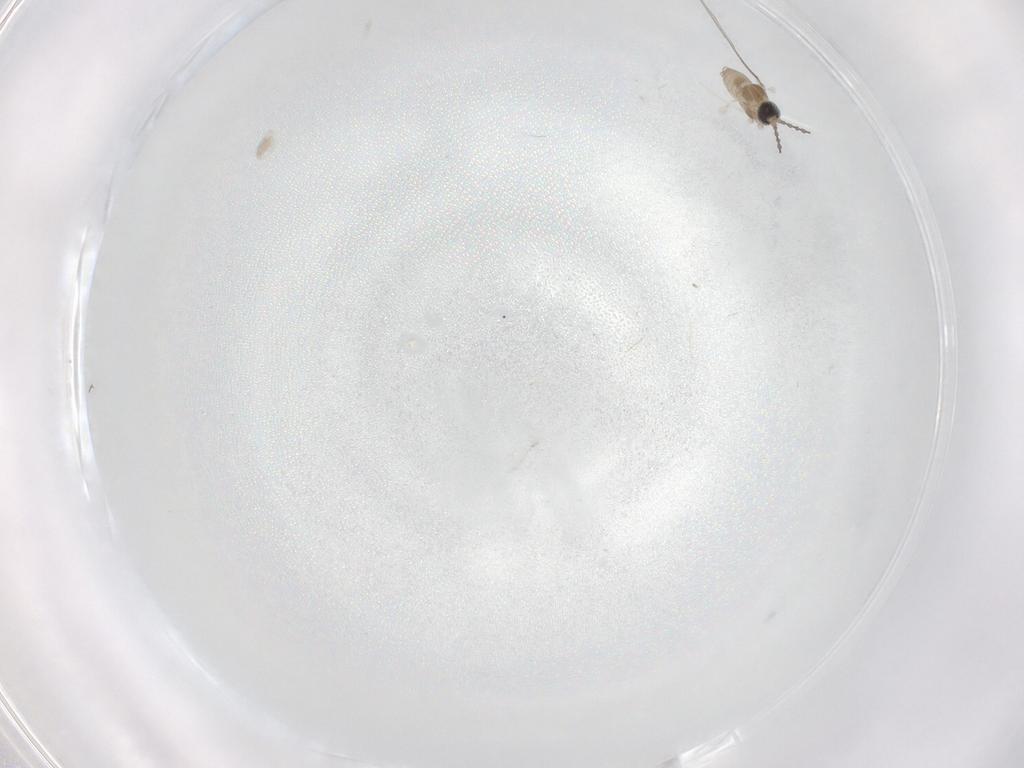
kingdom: Animalia
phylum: Arthropoda
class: Insecta
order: Diptera
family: Cecidomyiidae
